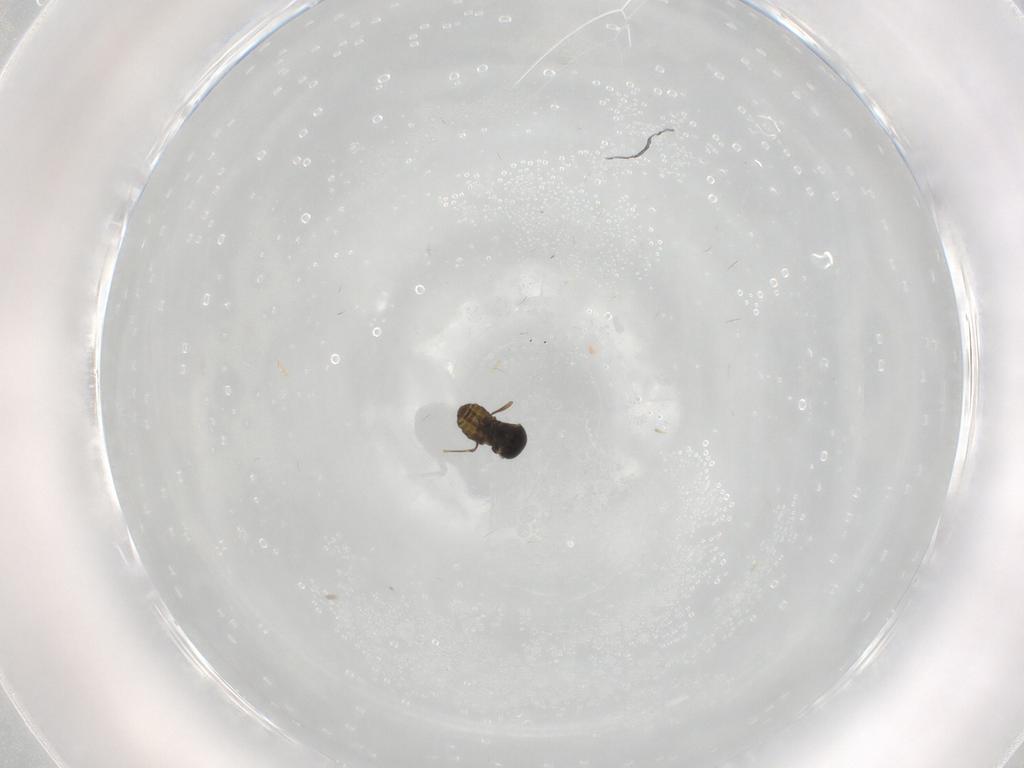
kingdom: Animalia
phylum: Arthropoda
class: Insecta
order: Diptera
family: Ceratopogonidae
